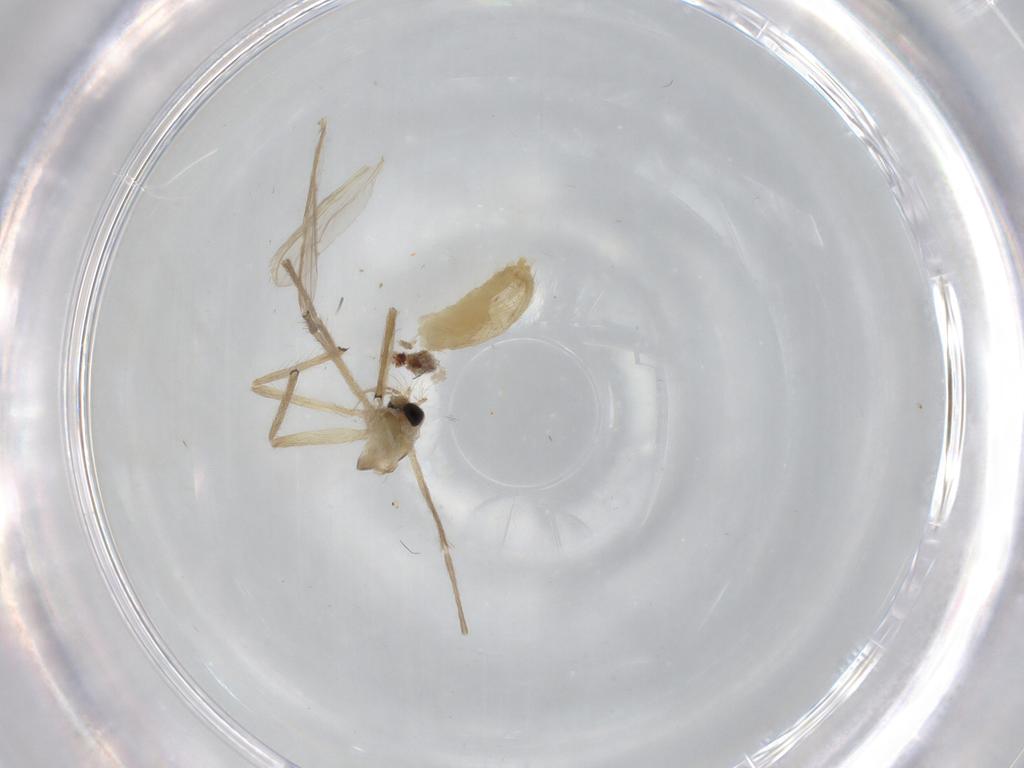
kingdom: Animalia
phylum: Arthropoda
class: Insecta
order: Diptera
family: Chironomidae
